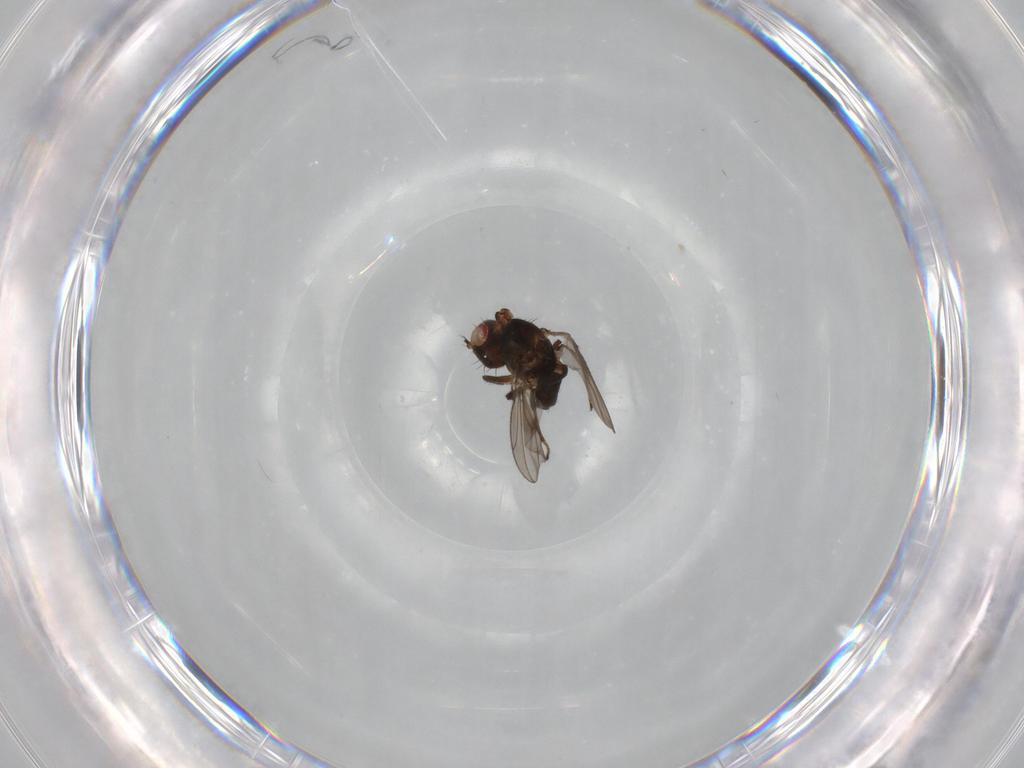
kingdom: Animalia
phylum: Arthropoda
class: Insecta
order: Diptera
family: Ephydridae
